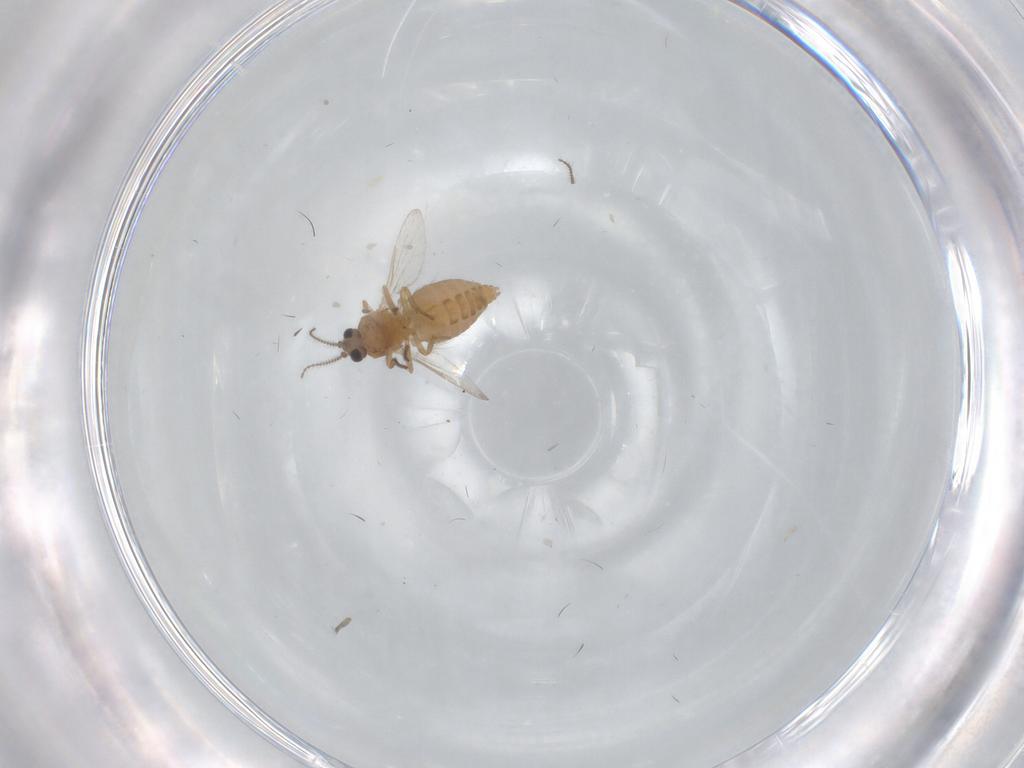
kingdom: Animalia
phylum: Arthropoda
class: Insecta
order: Diptera
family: Ceratopogonidae
